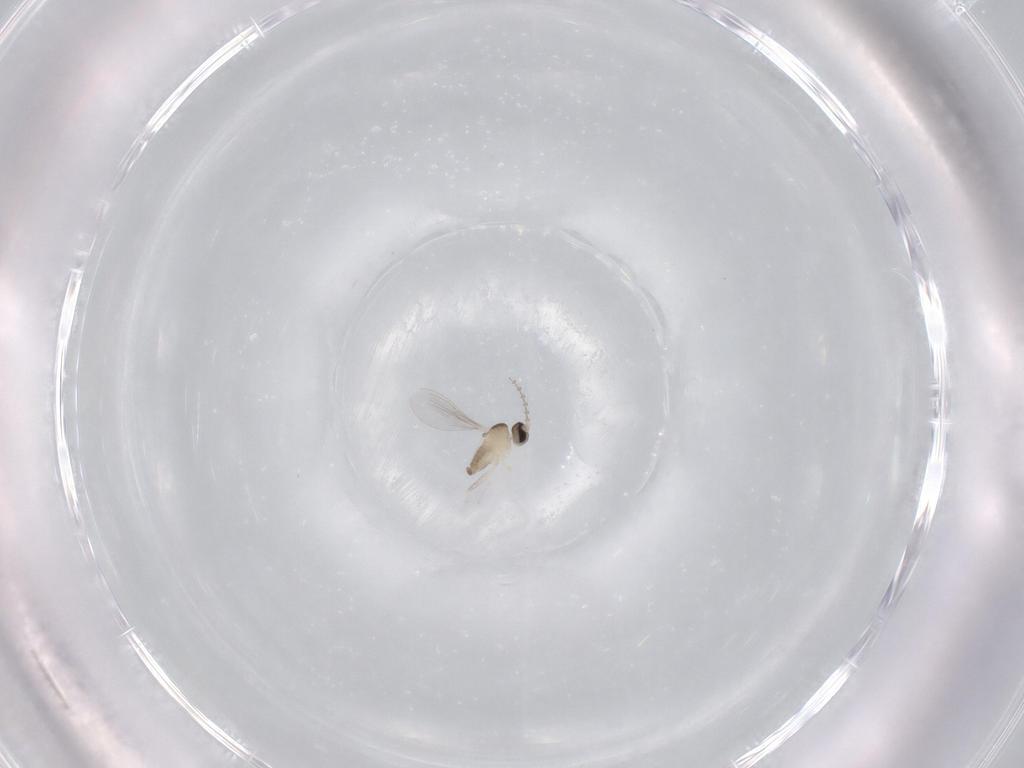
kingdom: Animalia
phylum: Arthropoda
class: Insecta
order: Diptera
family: Cecidomyiidae
